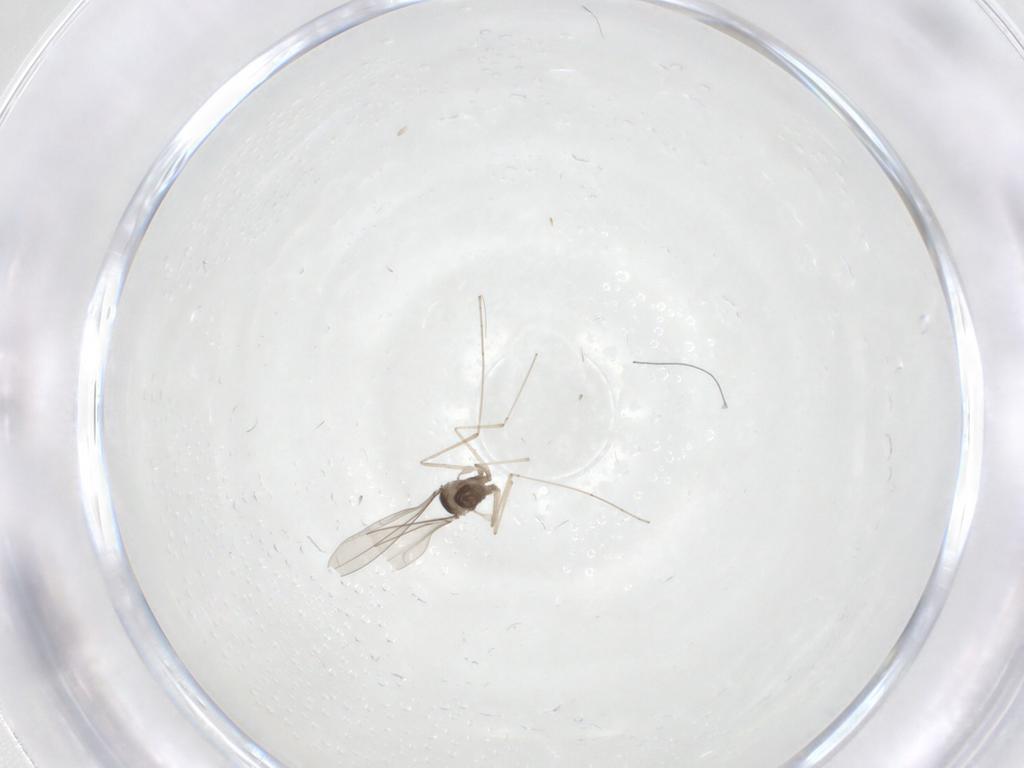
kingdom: Animalia
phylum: Arthropoda
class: Insecta
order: Diptera
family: Cecidomyiidae
